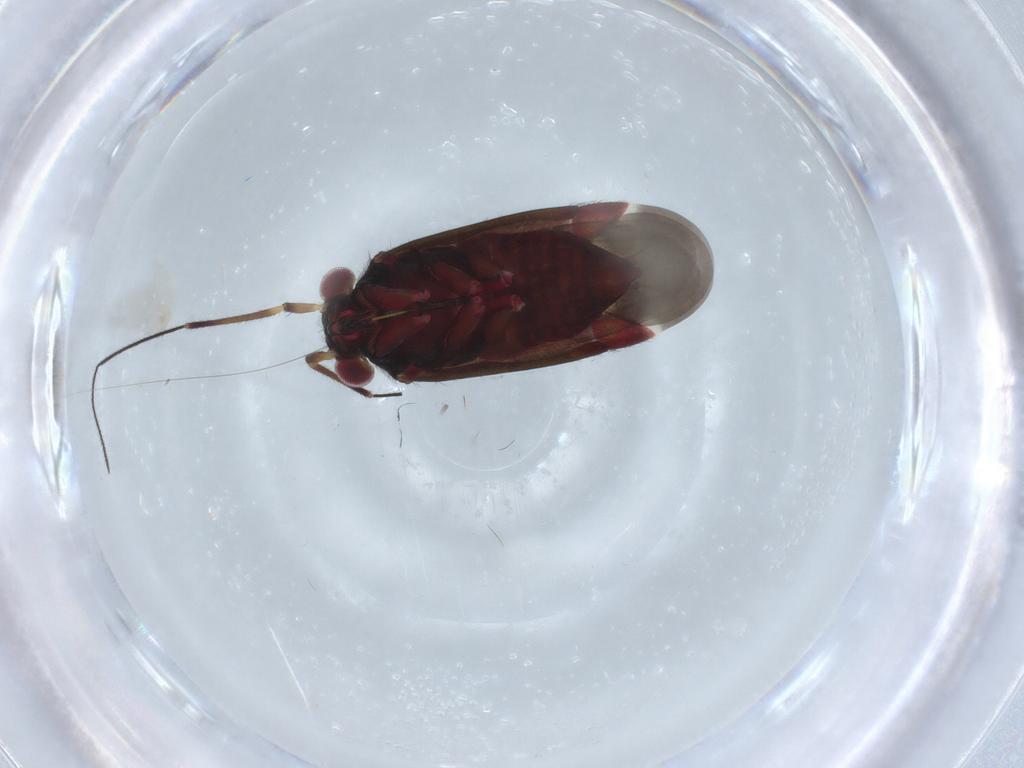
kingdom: Animalia
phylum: Arthropoda
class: Insecta
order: Hemiptera
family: Miridae
